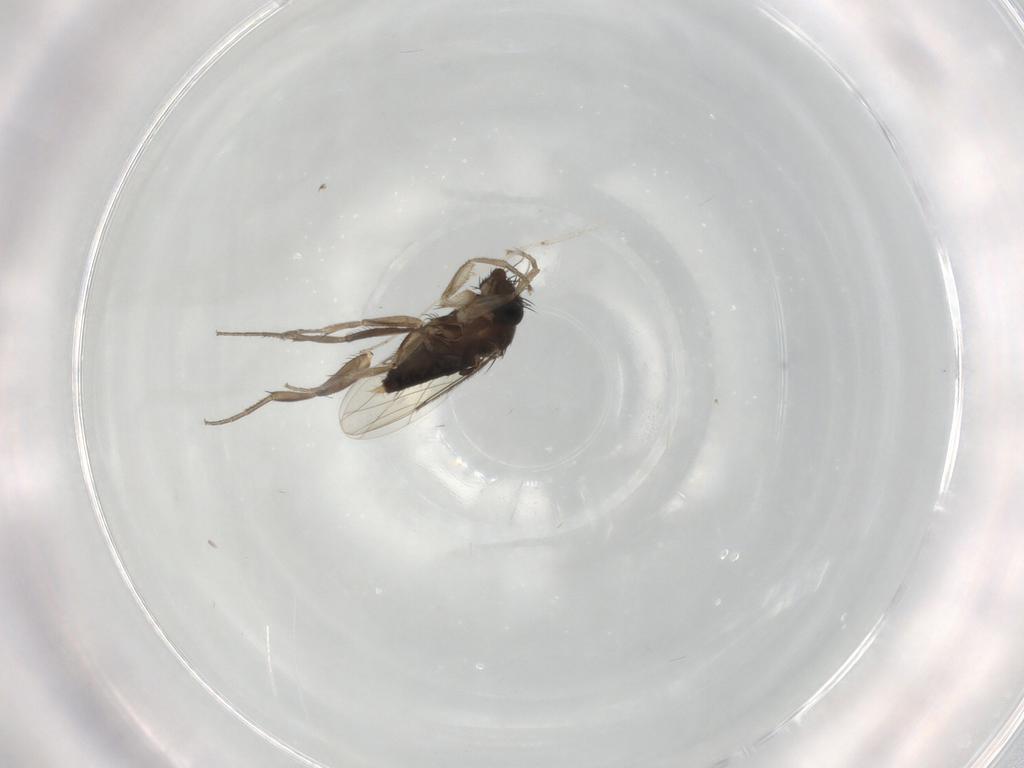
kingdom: Animalia
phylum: Arthropoda
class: Insecta
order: Diptera
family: Phoridae
